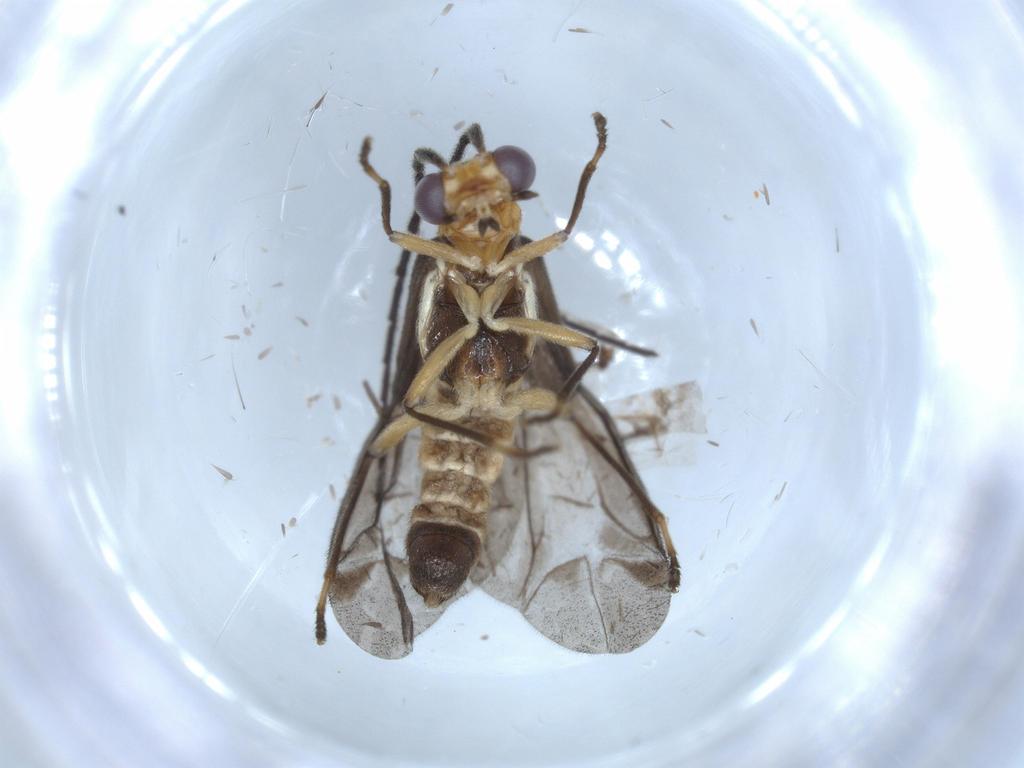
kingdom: Animalia
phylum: Arthropoda
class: Insecta
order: Coleoptera
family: Cantharidae
